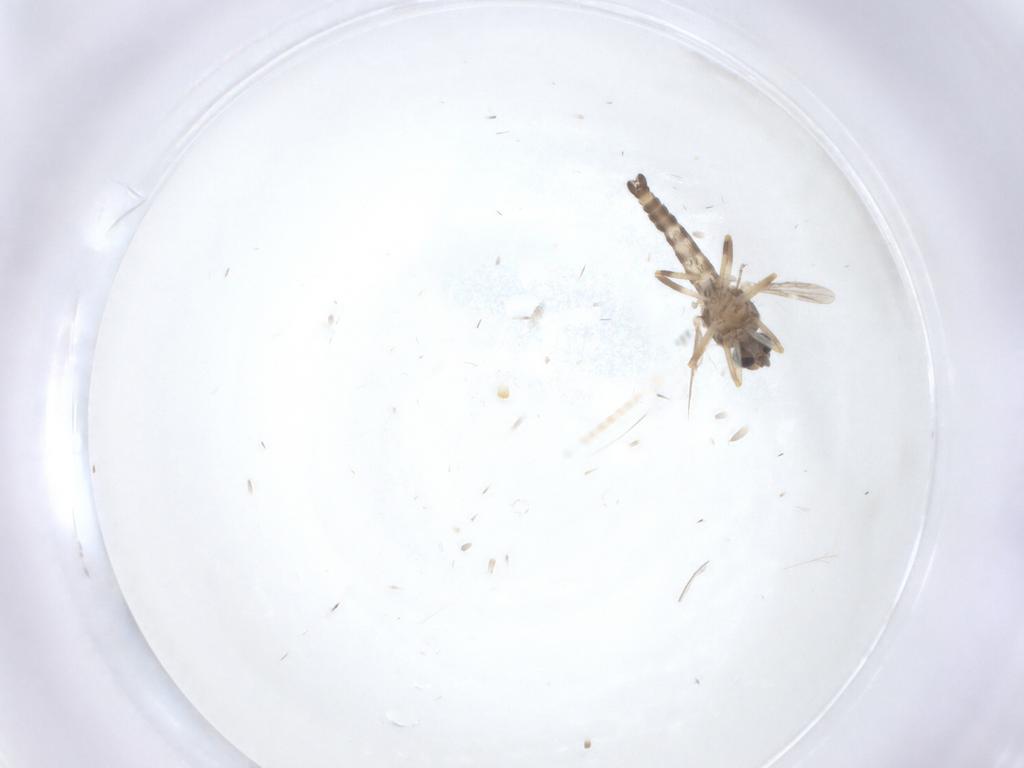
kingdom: Animalia
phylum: Arthropoda
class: Insecta
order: Diptera
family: Ceratopogonidae
